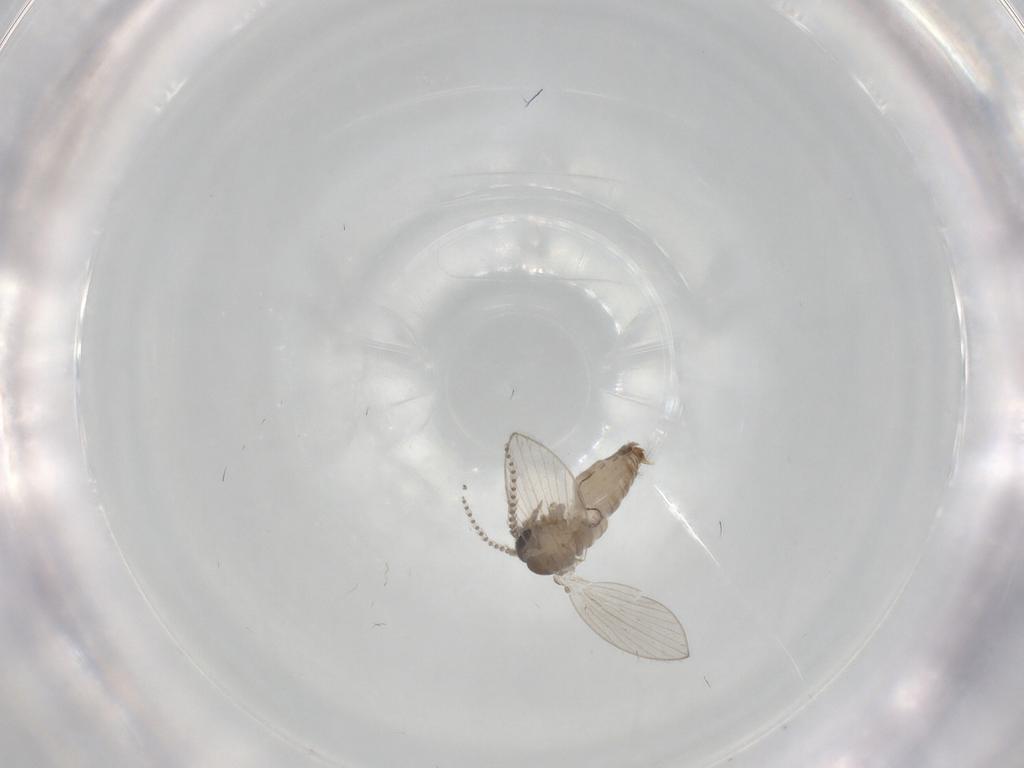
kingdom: Animalia
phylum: Arthropoda
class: Insecta
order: Diptera
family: Psychodidae
